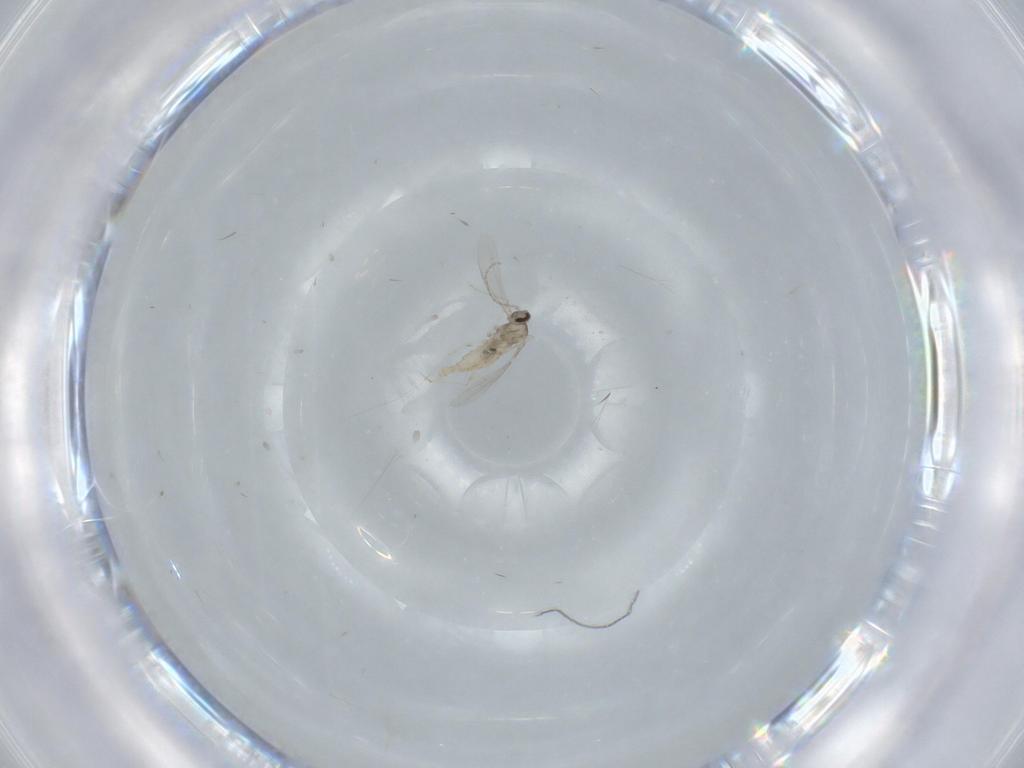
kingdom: Animalia
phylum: Arthropoda
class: Insecta
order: Diptera
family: Cecidomyiidae
